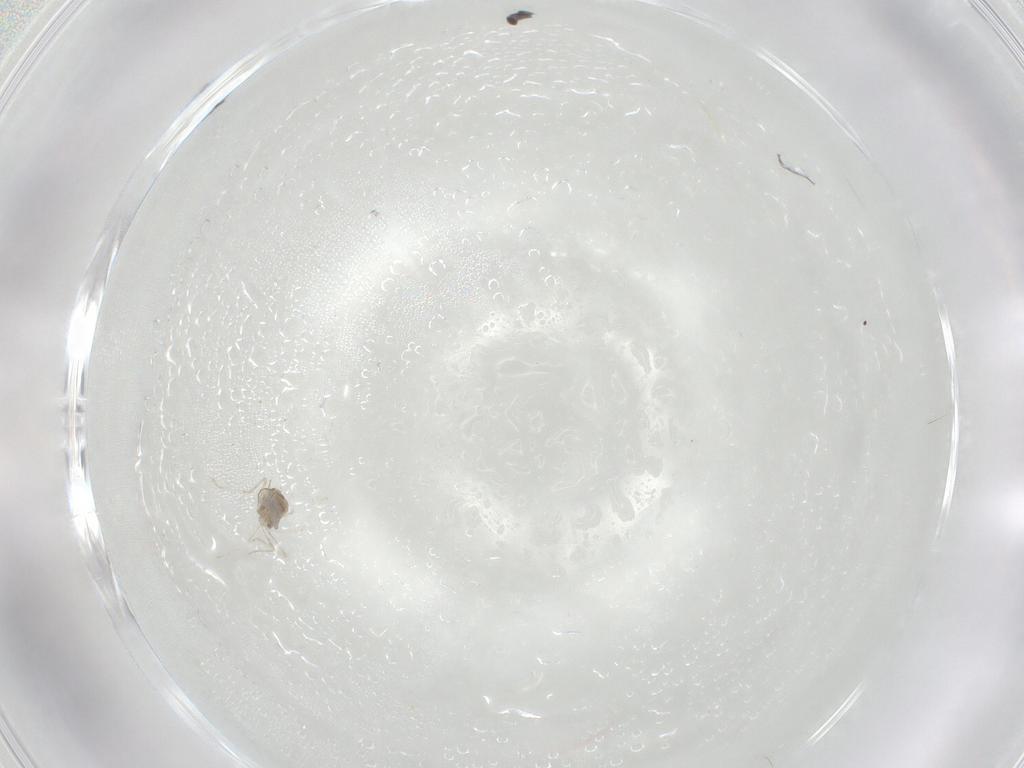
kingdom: Animalia
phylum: Arthropoda
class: Insecta
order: Diptera
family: Cecidomyiidae
